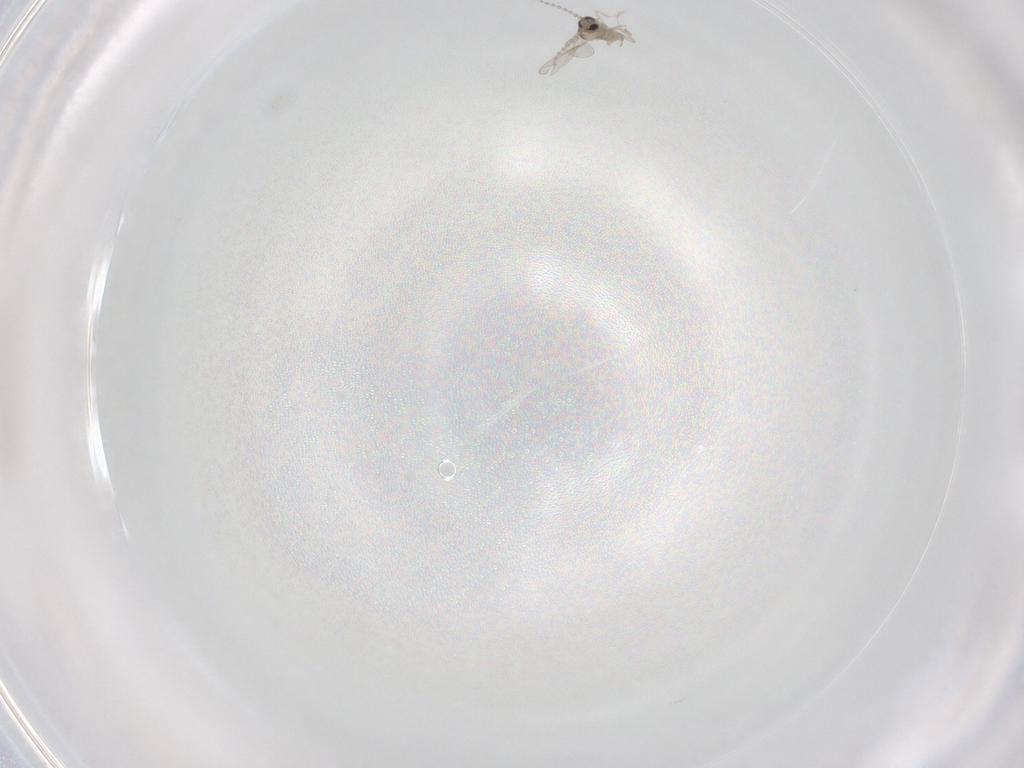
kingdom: Animalia
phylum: Arthropoda
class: Insecta
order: Diptera
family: Cecidomyiidae
